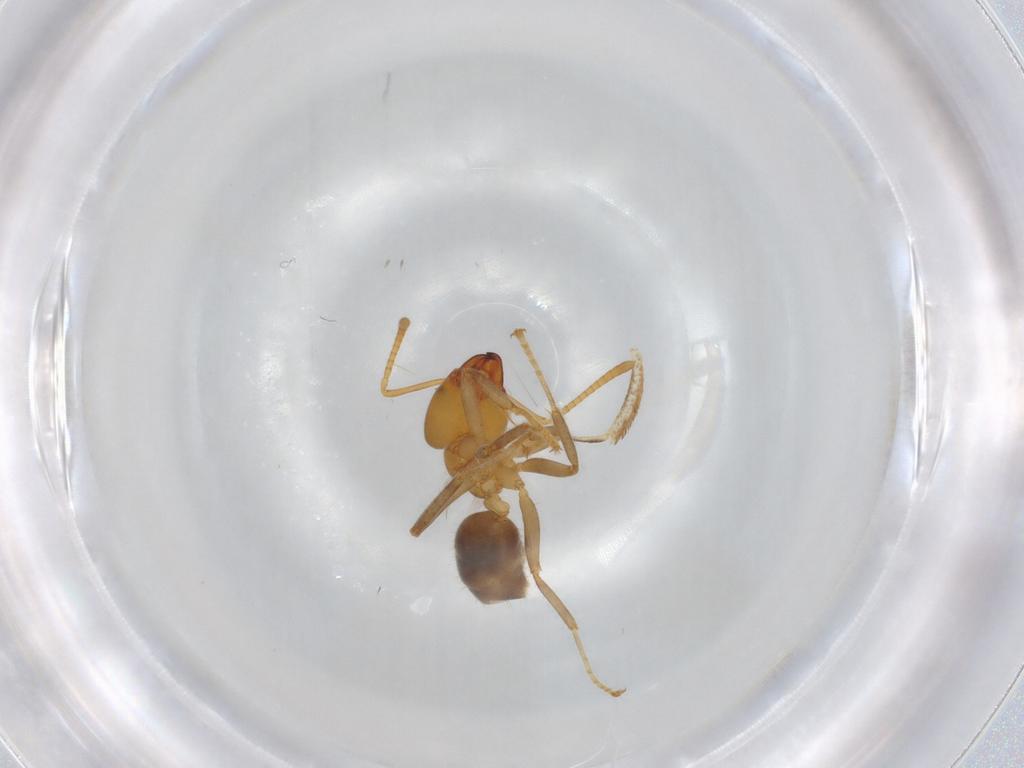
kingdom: Animalia
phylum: Arthropoda
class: Insecta
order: Hymenoptera
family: Formicidae
